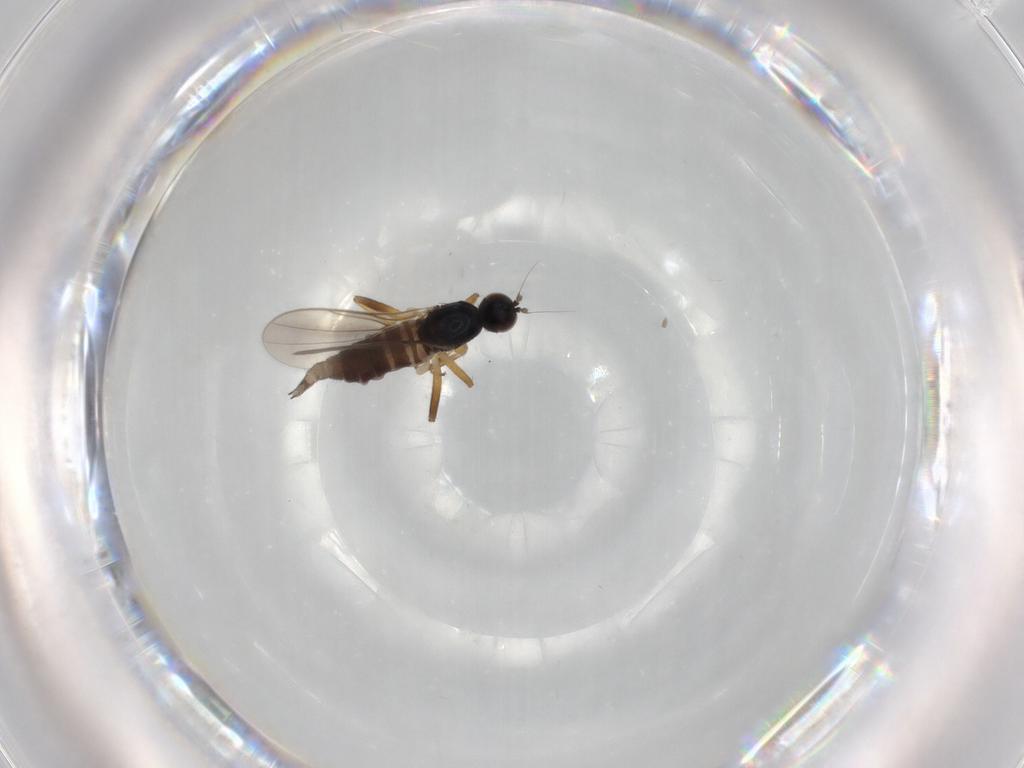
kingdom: Animalia
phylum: Arthropoda
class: Insecta
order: Diptera
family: Hybotidae
